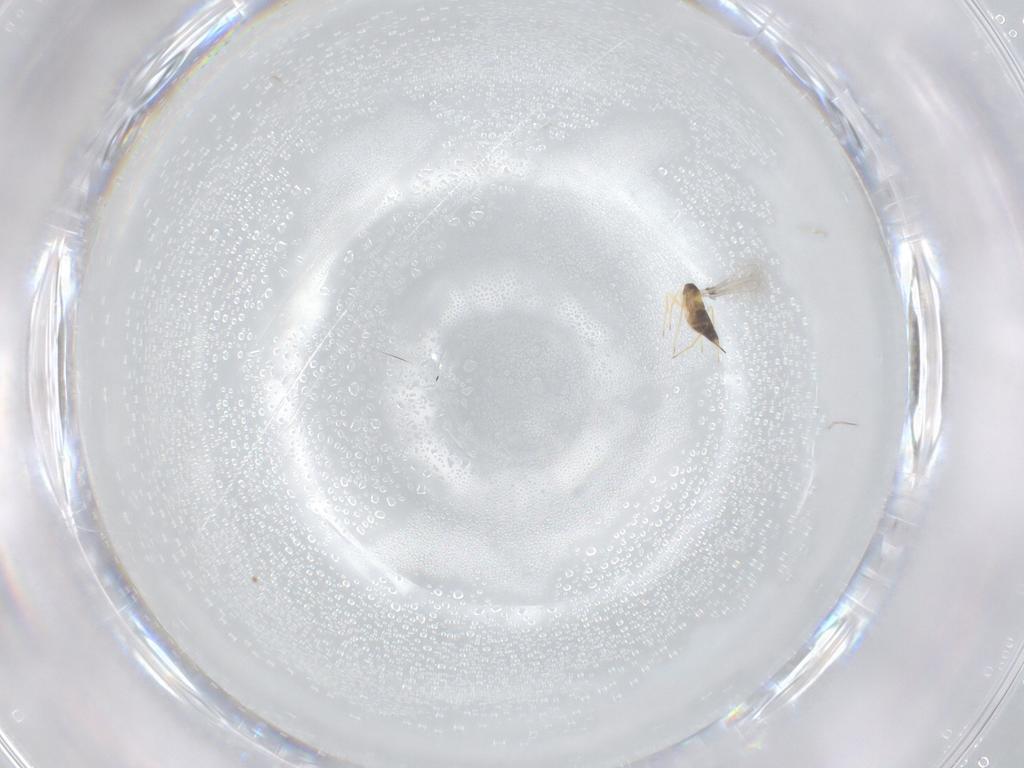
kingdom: Animalia
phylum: Arthropoda
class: Insecta
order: Hymenoptera
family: Mymaridae
